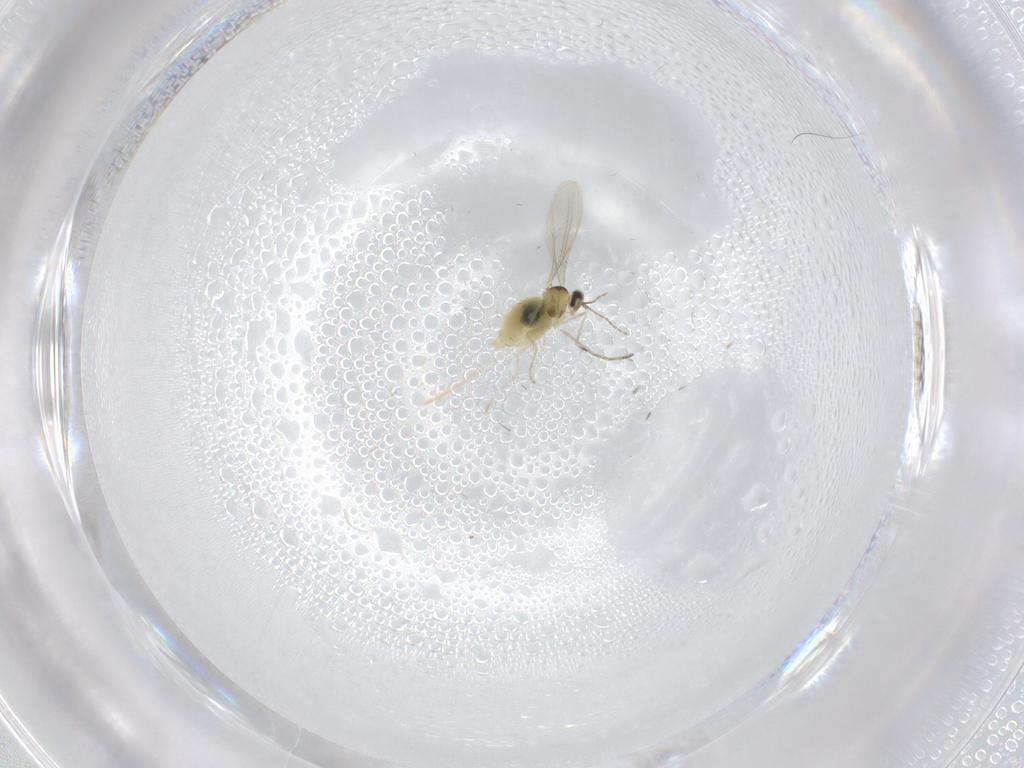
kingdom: Animalia
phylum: Arthropoda
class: Insecta
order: Diptera
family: Cecidomyiidae
